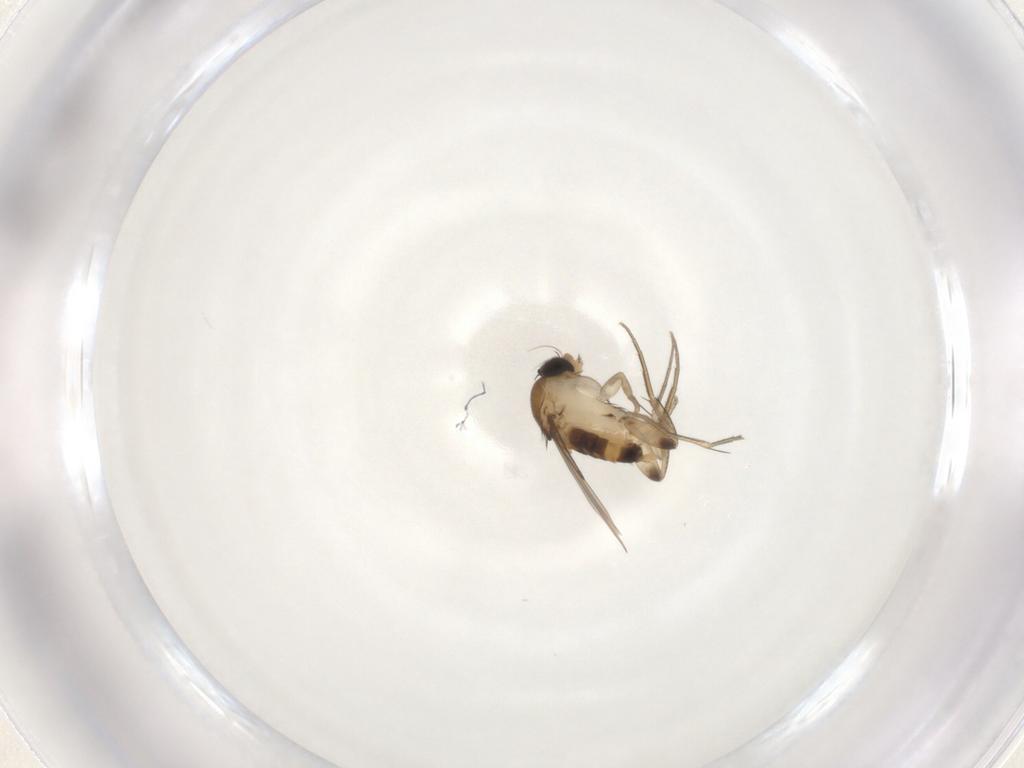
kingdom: Animalia
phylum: Arthropoda
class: Insecta
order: Diptera
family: Phoridae
